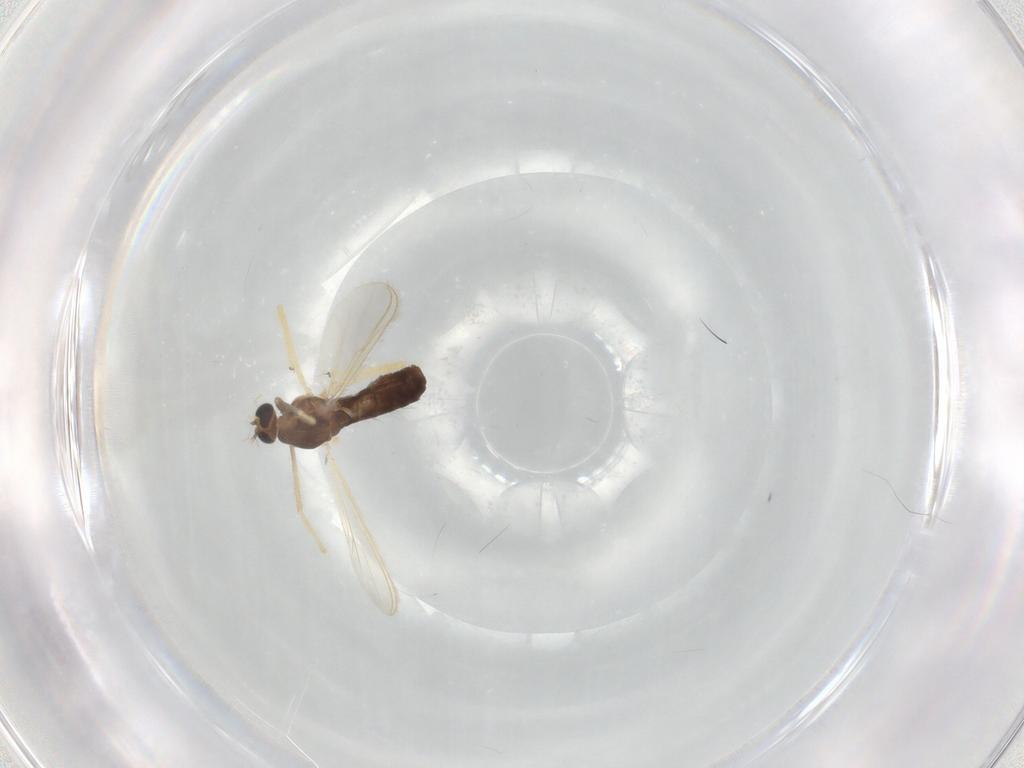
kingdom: Animalia
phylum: Arthropoda
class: Insecta
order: Diptera
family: Chironomidae
